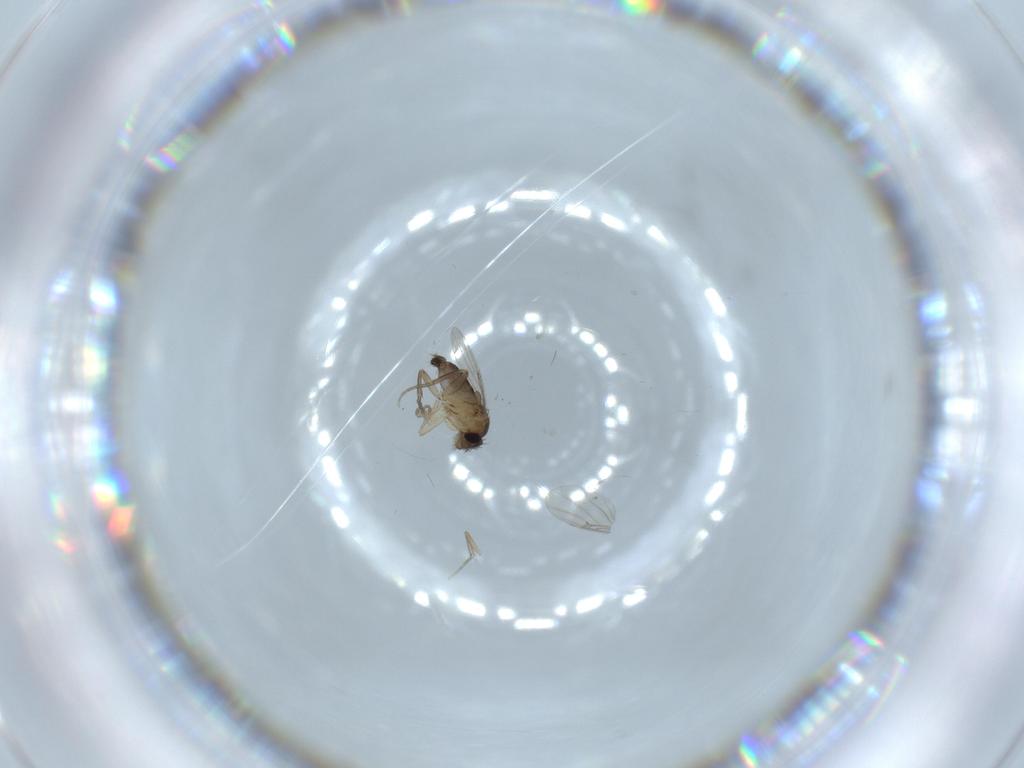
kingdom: Animalia
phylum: Arthropoda
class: Insecta
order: Diptera
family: Phoridae
